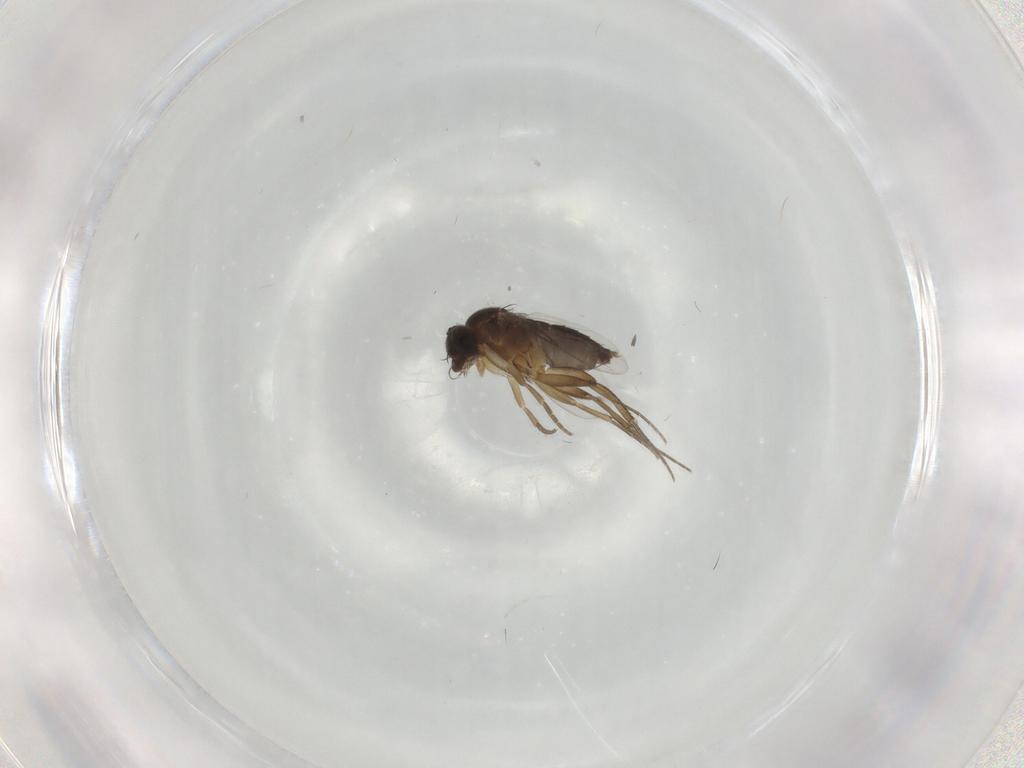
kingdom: Animalia
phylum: Arthropoda
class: Insecta
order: Diptera
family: Phoridae
